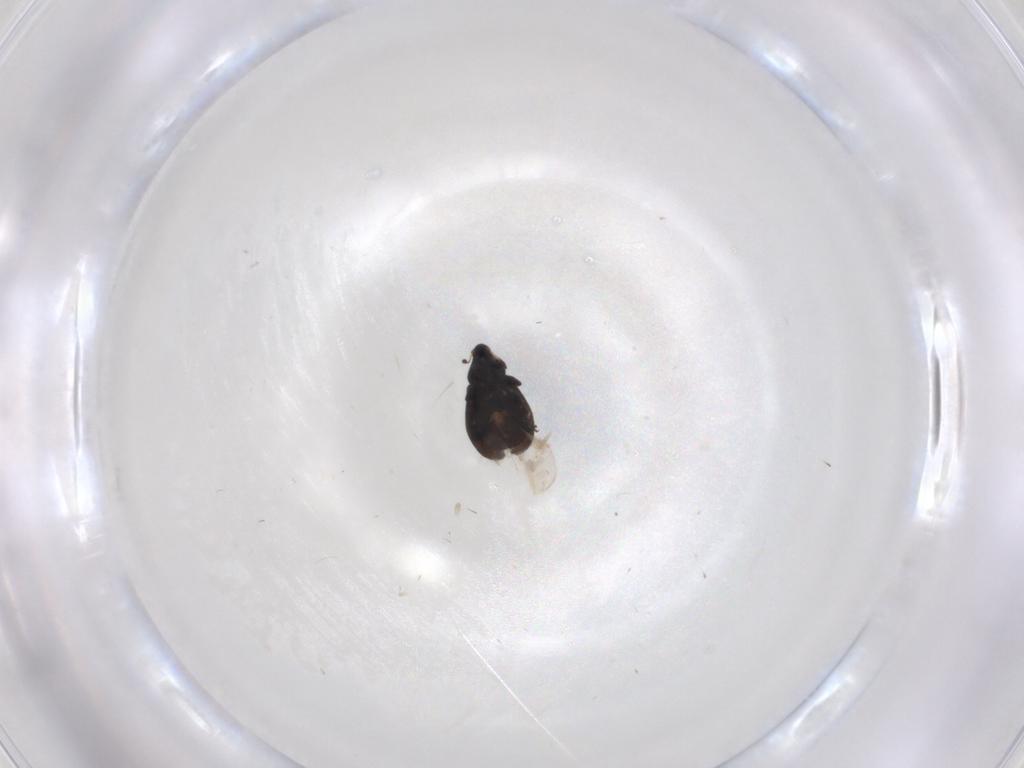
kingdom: Animalia
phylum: Arthropoda
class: Insecta
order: Coleoptera
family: Curculionidae
